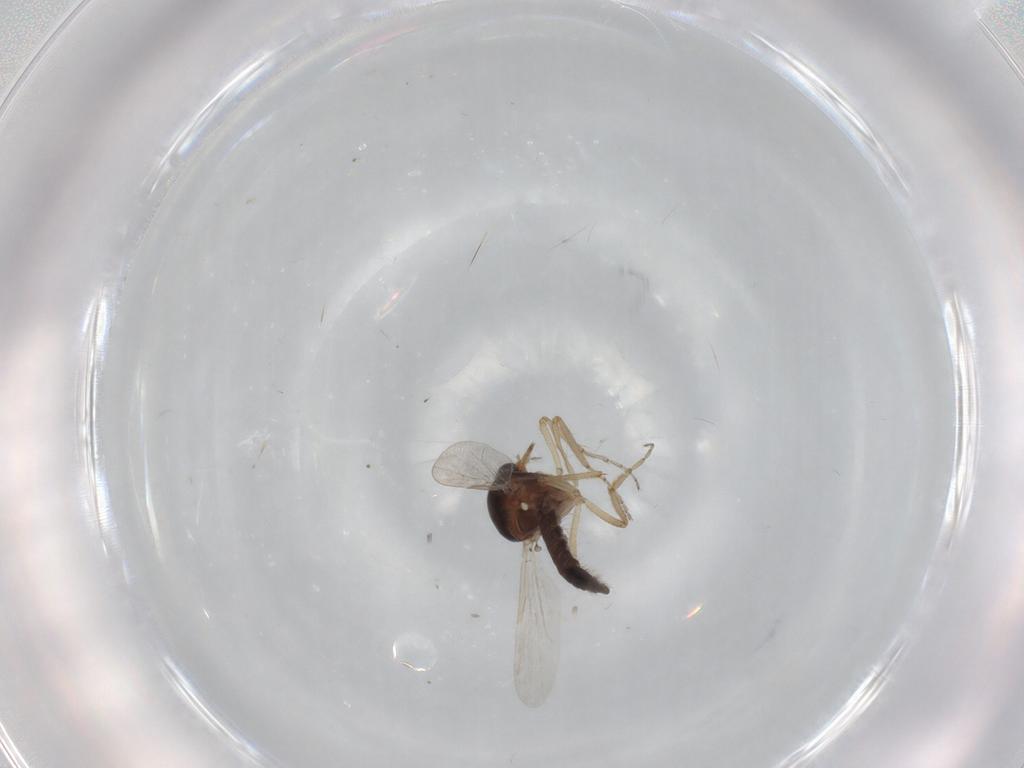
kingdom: Animalia
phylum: Arthropoda
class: Insecta
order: Diptera
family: Ceratopogonidae
